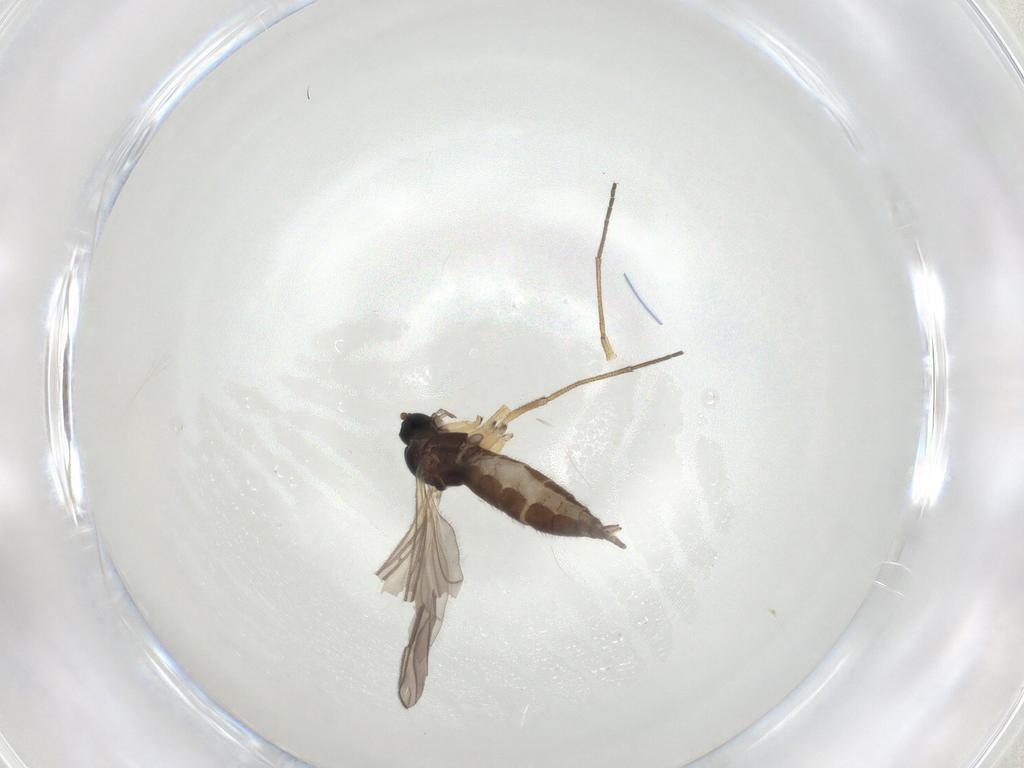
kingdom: Animalia
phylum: Arthropoda
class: Insecta
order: Diptera
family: Sciaridae
